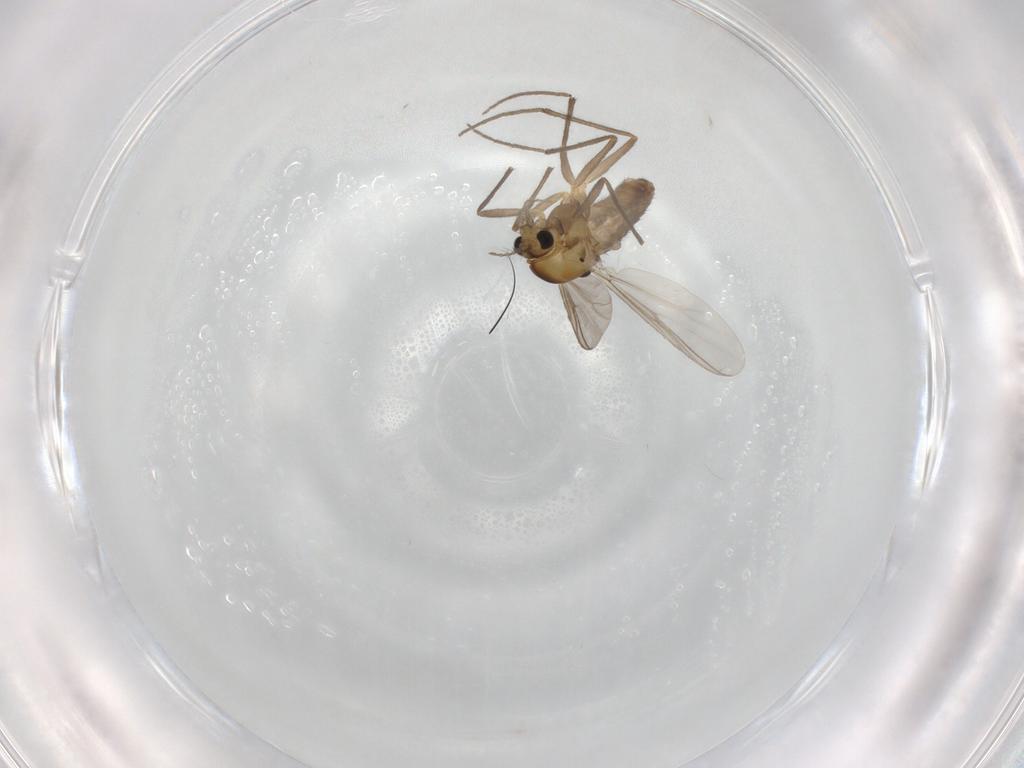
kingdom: Animalia
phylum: Arthropoda
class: Insecta
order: Diptera
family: Chironomidae
